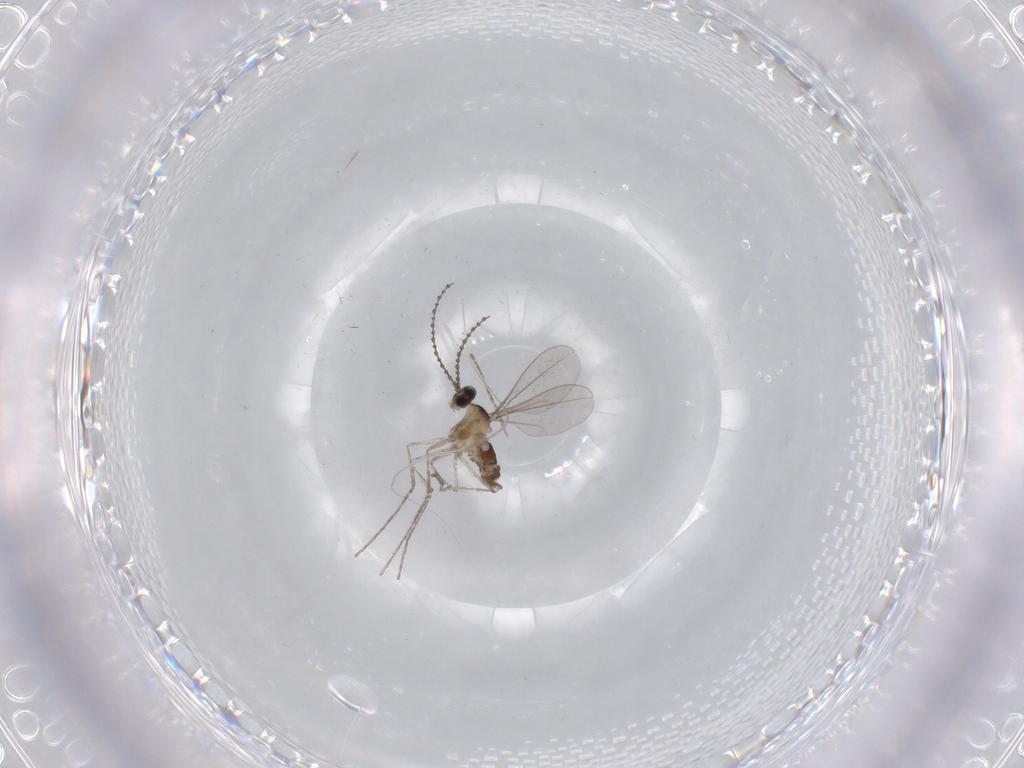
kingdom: Animalia
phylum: Arthropoda
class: Insecta
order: Diptera
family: Cecidomyiidae
